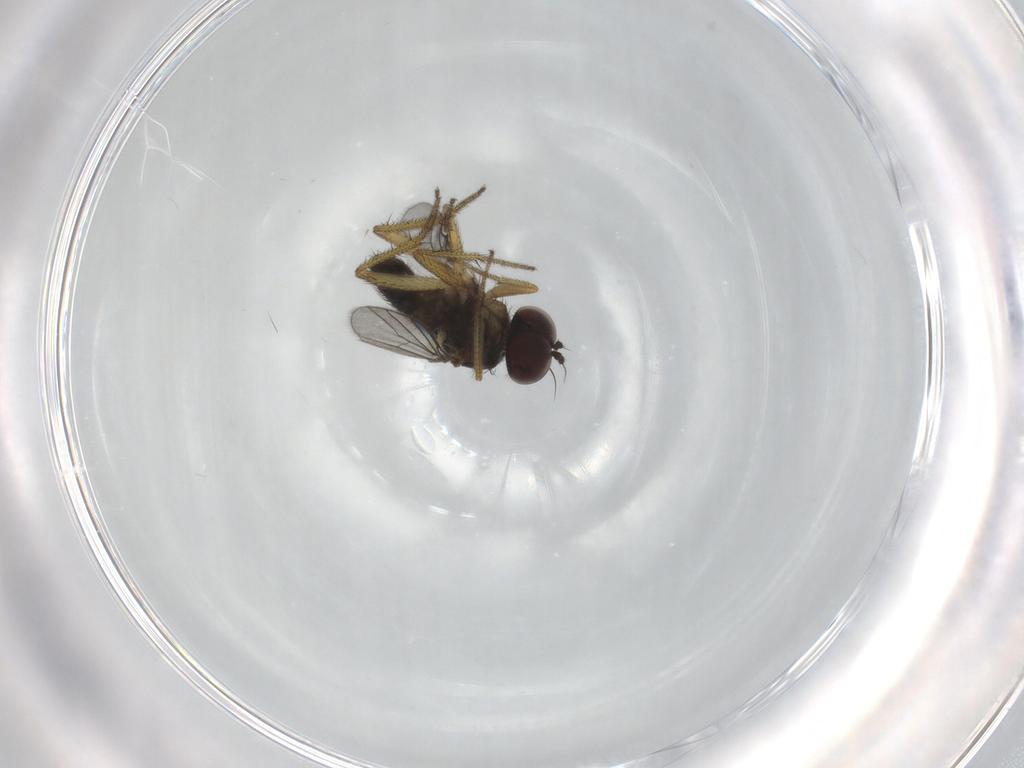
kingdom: Animalia
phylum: Arthropoda
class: Insecta
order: Diptera
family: Dolichopodidae
